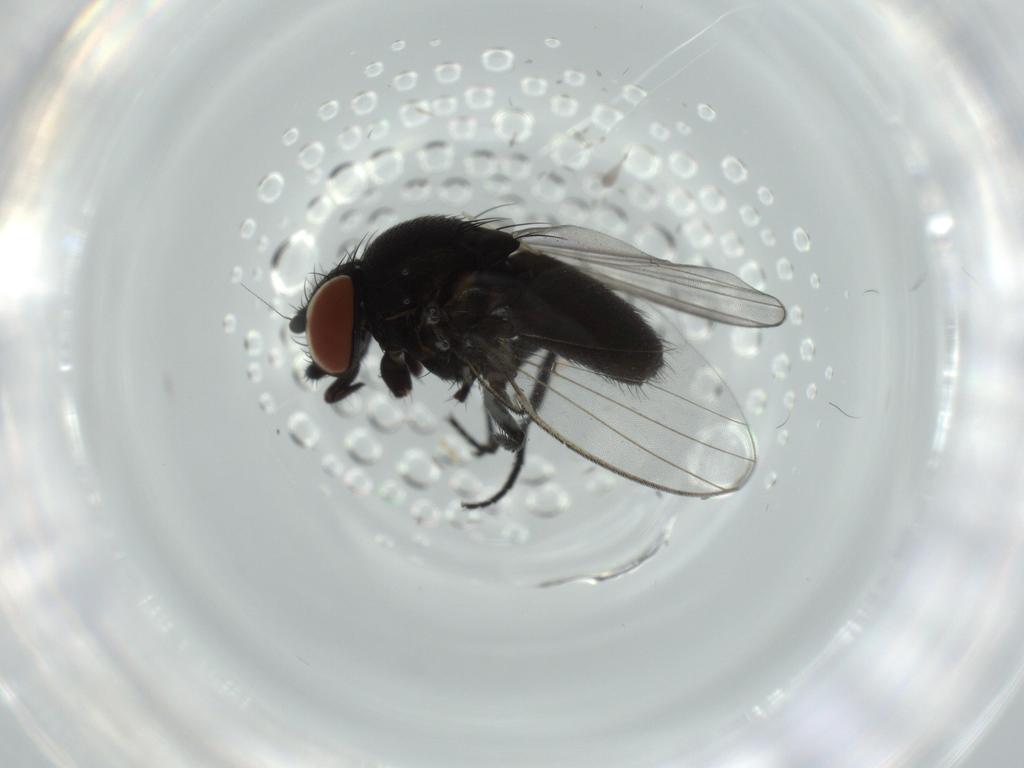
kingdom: Animalia
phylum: Arthropoda
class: Insecta
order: Diptera
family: Milichiidae
